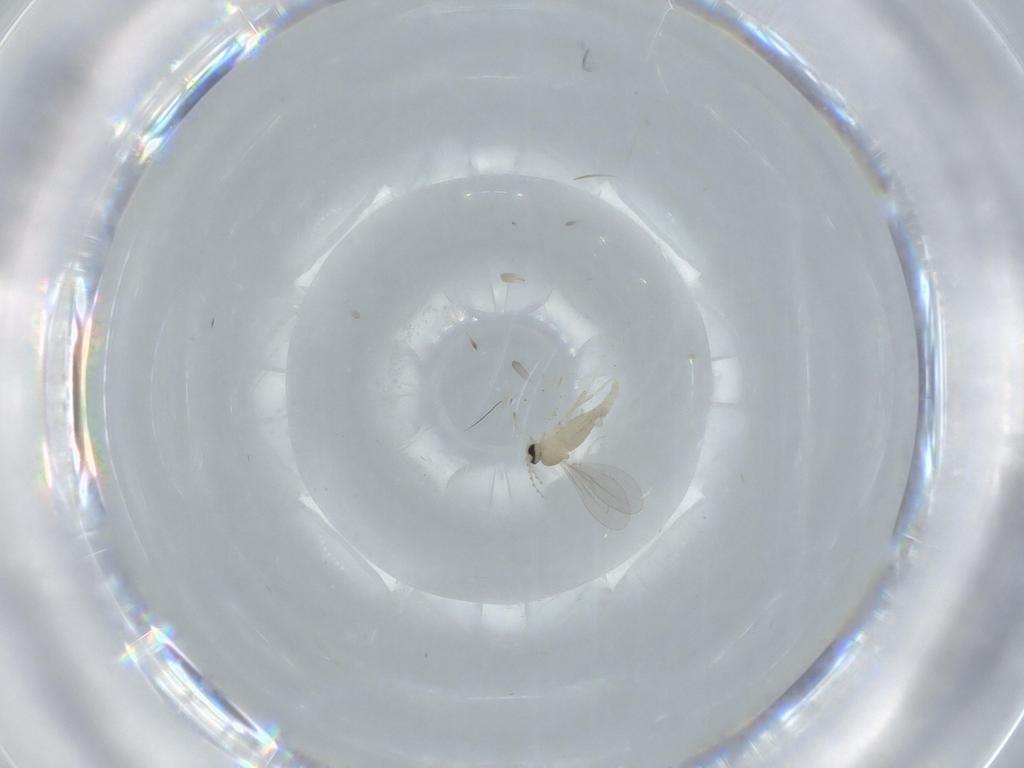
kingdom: Animalia
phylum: Arthropoda
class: Insecta
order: Diptera
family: Cecidomyiidae
